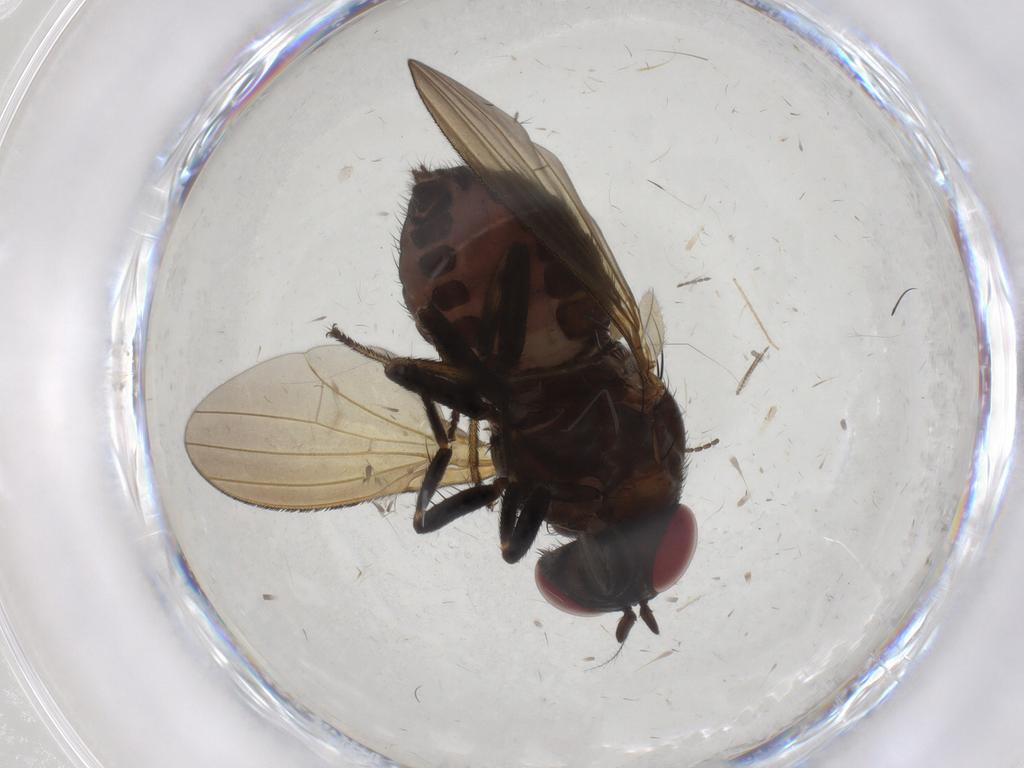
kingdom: Animalia
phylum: Arthropoda
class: Insecta
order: Diptera
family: Lauxaniidae
